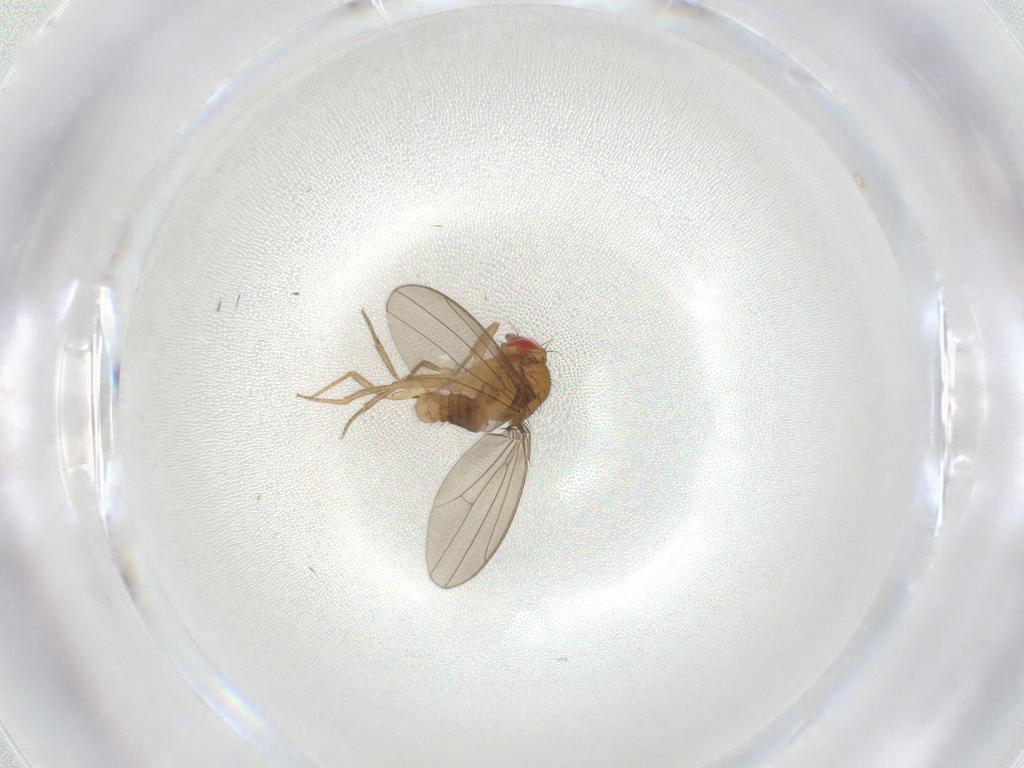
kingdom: Animalia
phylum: Arthropoda
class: Insecta
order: Diptera
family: Drosophilidae
